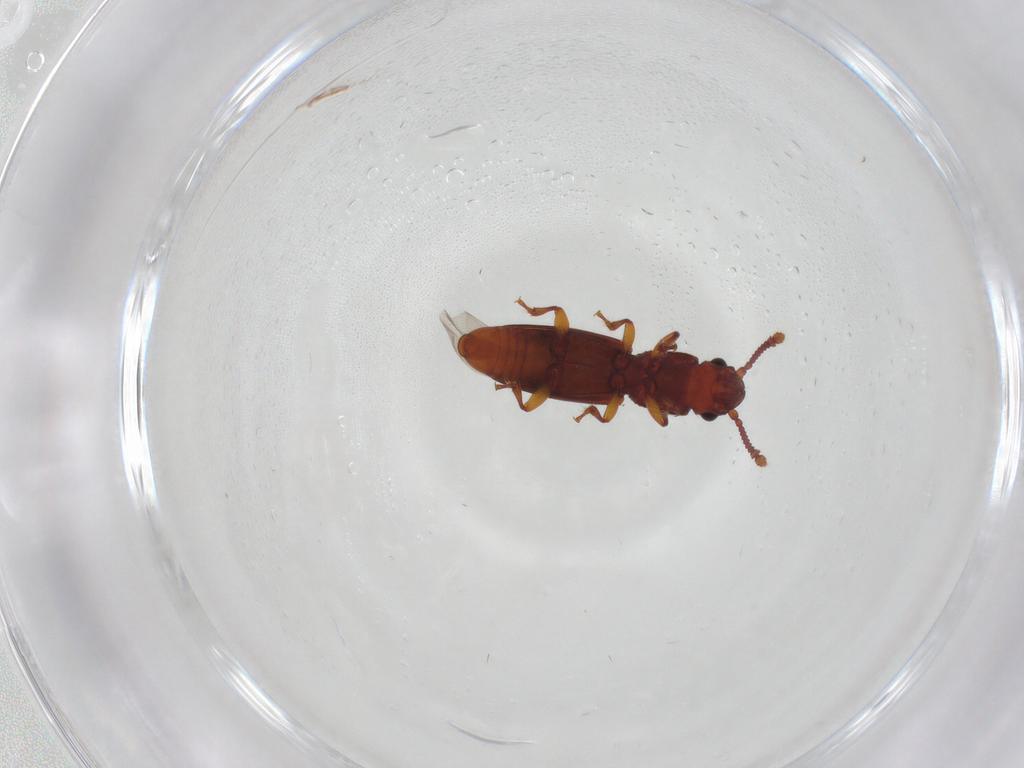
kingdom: Animalia
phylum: Arthropoda
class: Insecta
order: Coleoptera
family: Monotomidae
